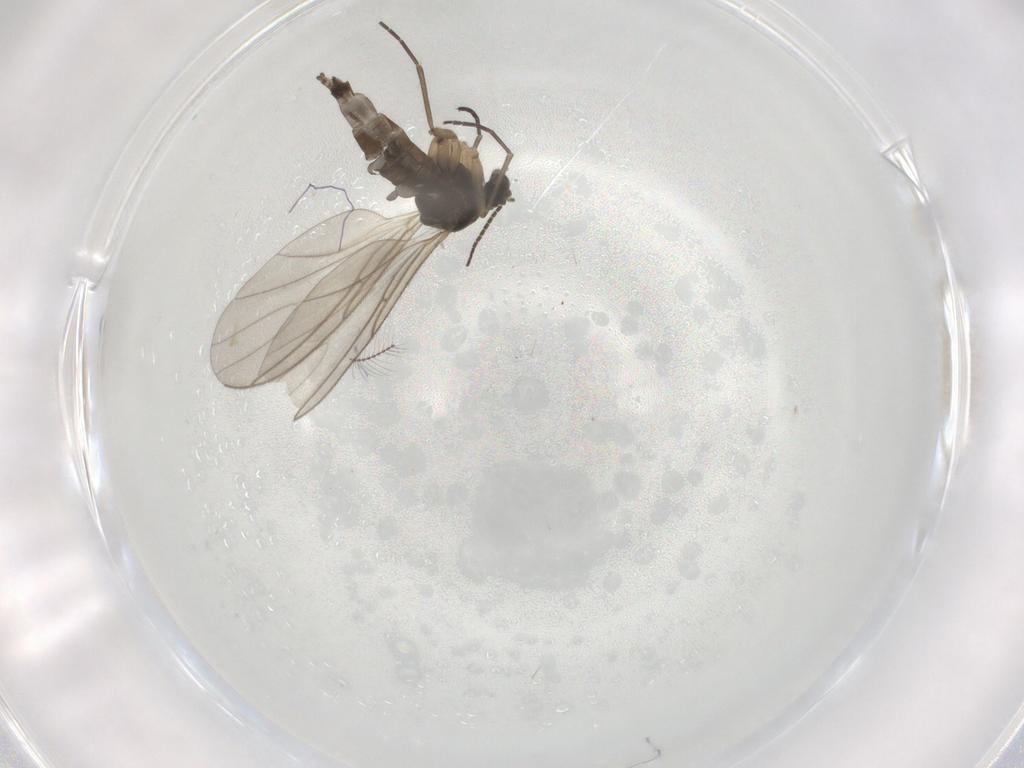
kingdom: Animalia
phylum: Arthropoda
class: Insecta
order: Diptera
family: Sciaridae
